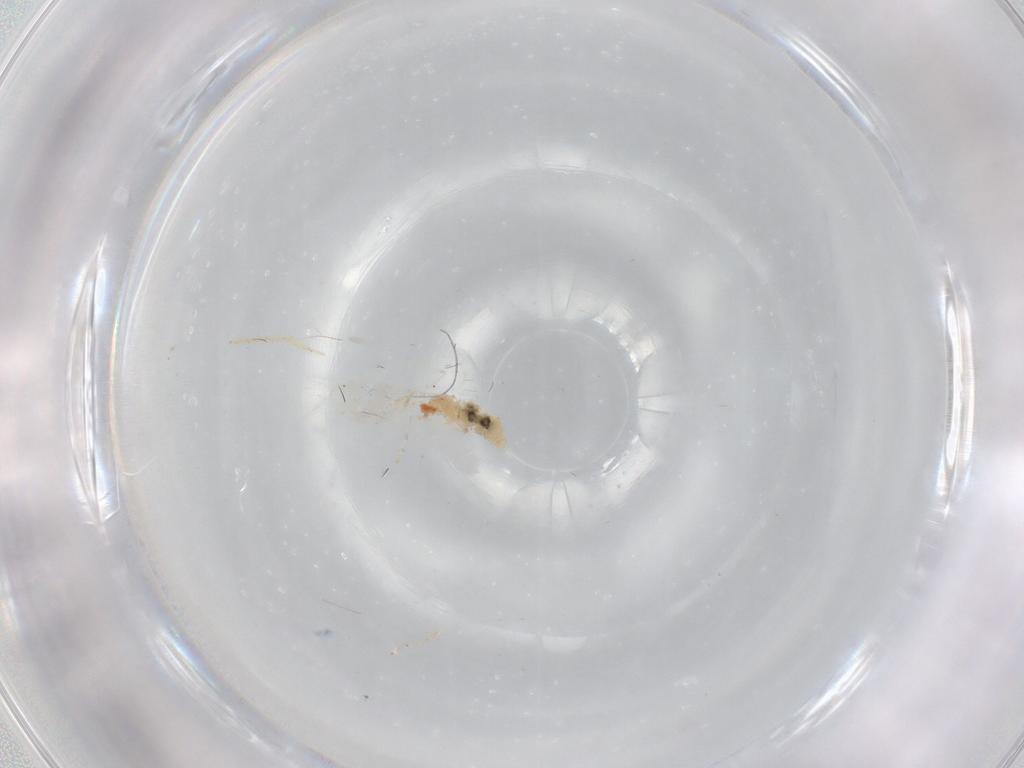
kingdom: Animalia
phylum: Arthropoda
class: Insecta
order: Diptera
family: Cecidomyiidae
